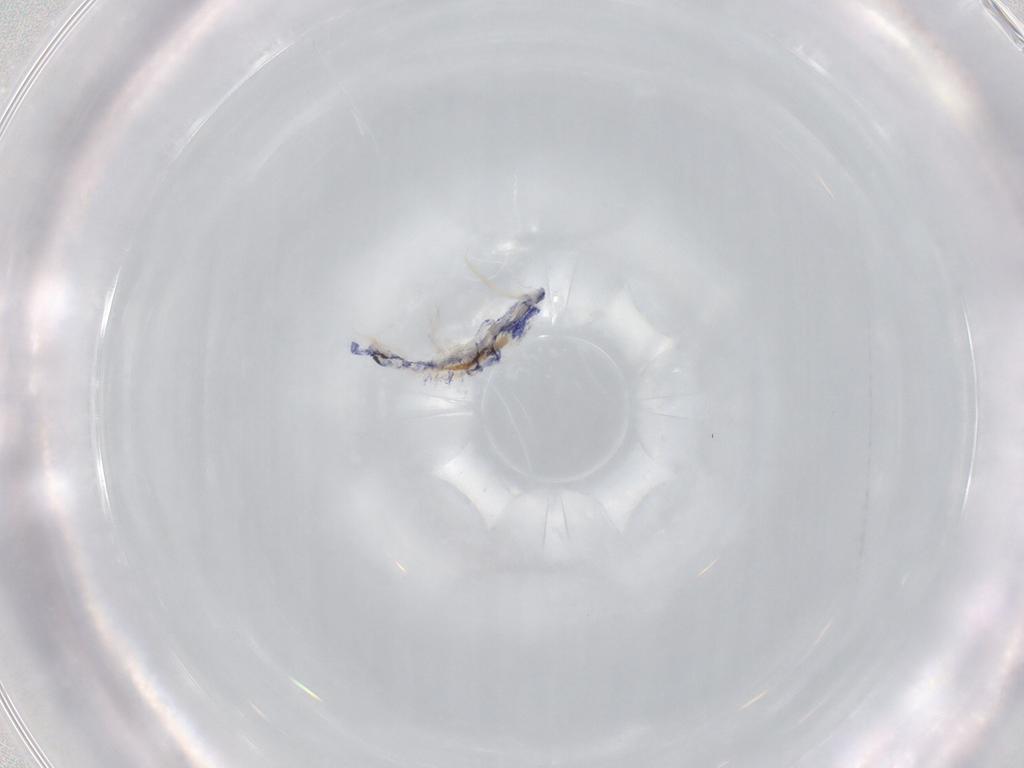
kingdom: Animalia
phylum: Arthropoda
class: Collembola
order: Entomobryomorpha
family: Entomobryidae
